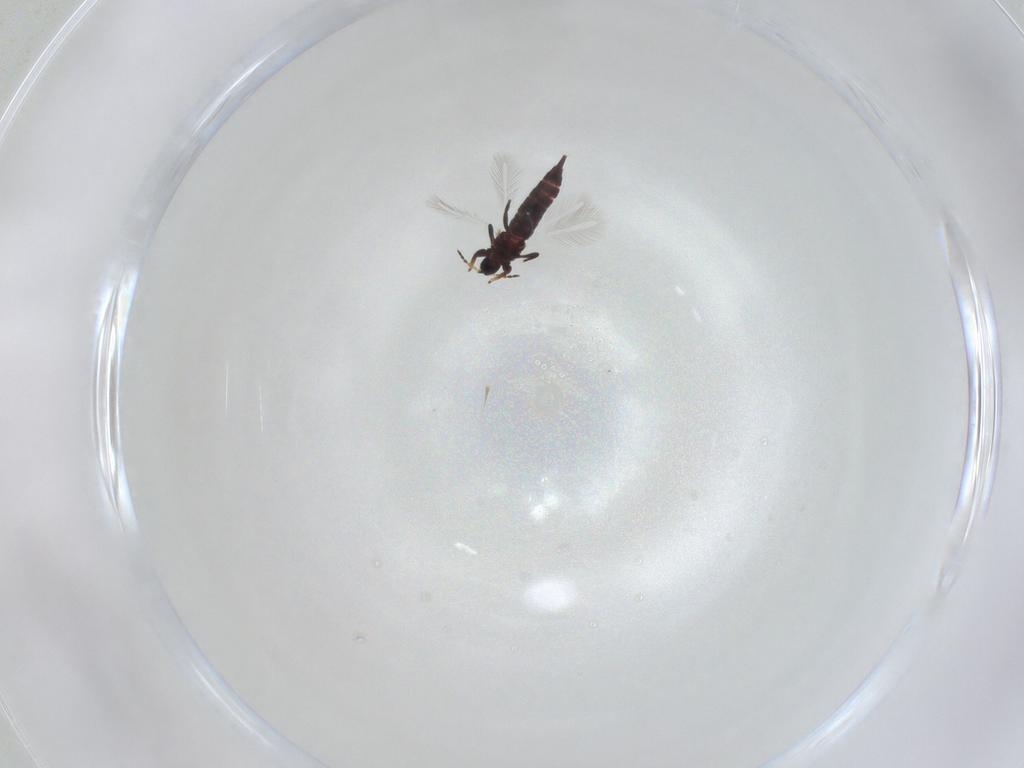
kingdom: Animalia
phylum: Arthropoda
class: Insecta
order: Thysanoptera
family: Phlaeothripidae
